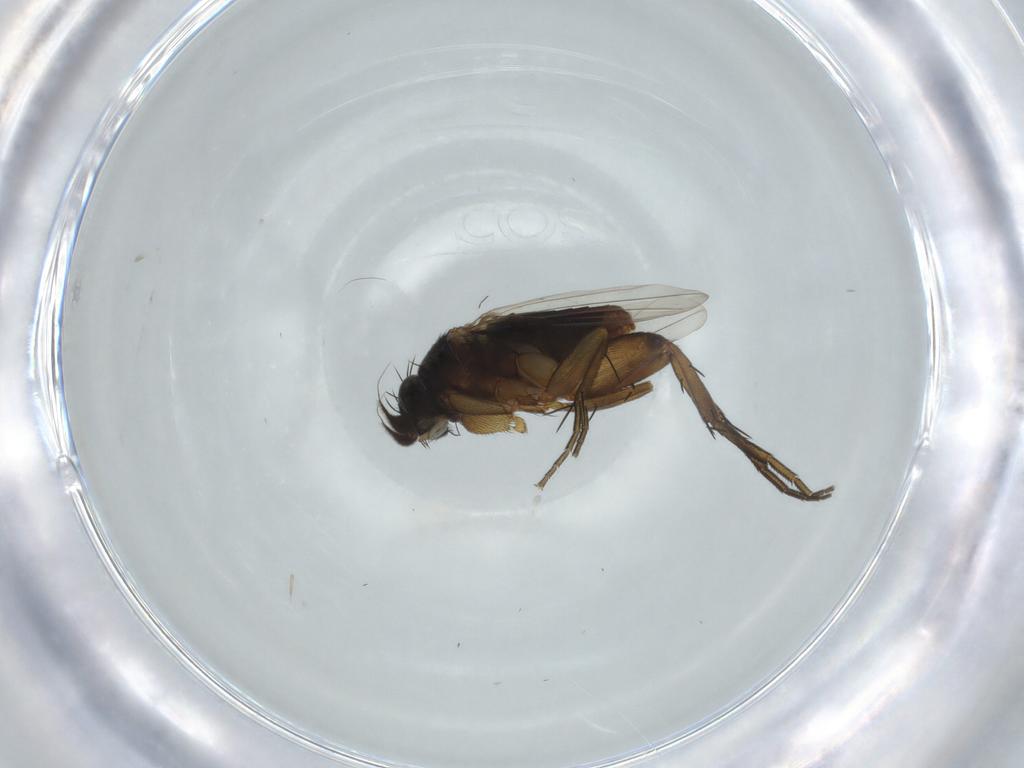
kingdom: Animalia
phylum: Arthropoda
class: Insecta
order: Diptera
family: Phoridae
